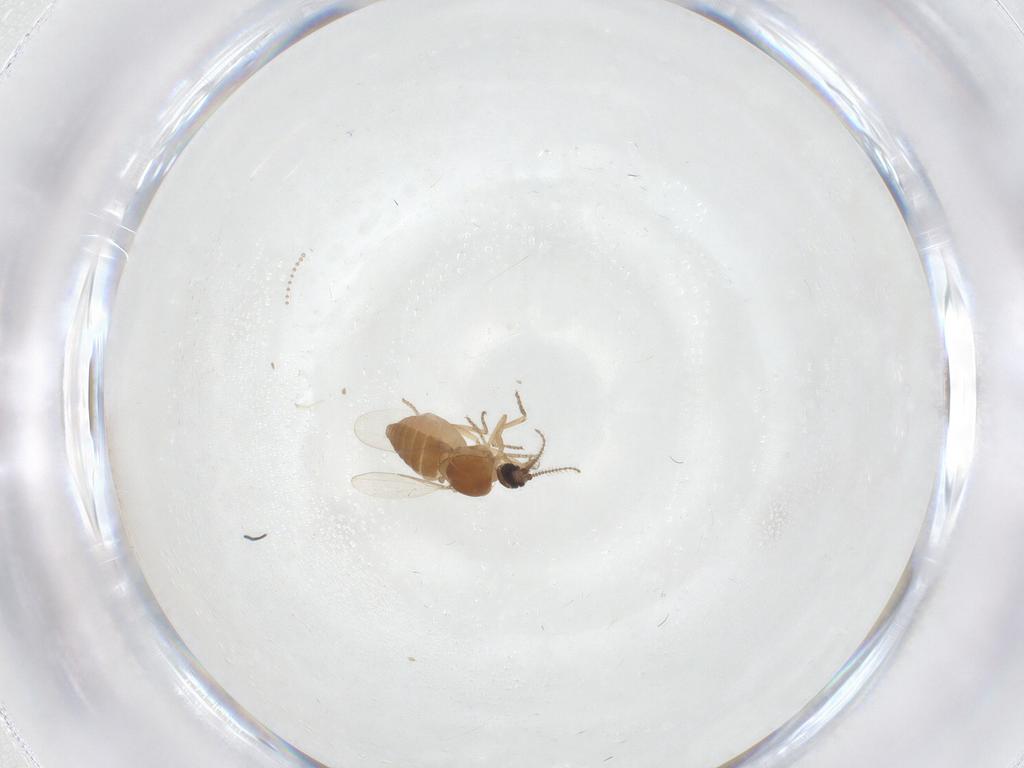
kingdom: Animalia
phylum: Arthropoda
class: Insecta
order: Diptera
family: Ceratopogonidae
